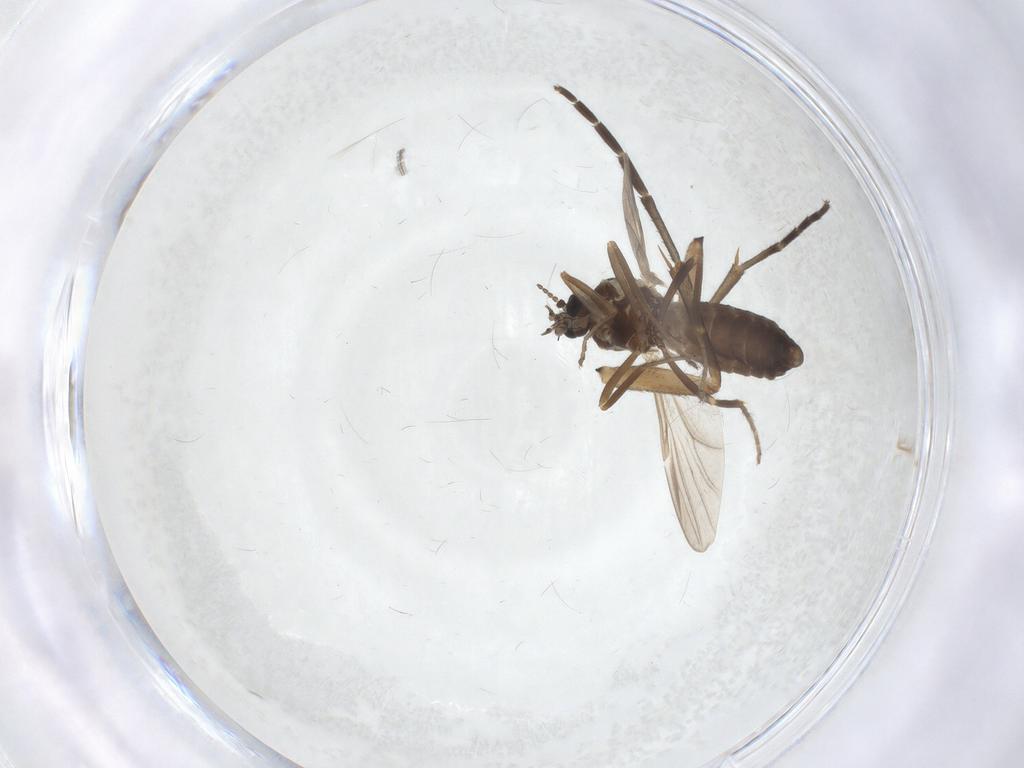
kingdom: Animalia
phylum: Arthropoda
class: Insecta
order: Diptera
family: Ceratopogonidae
